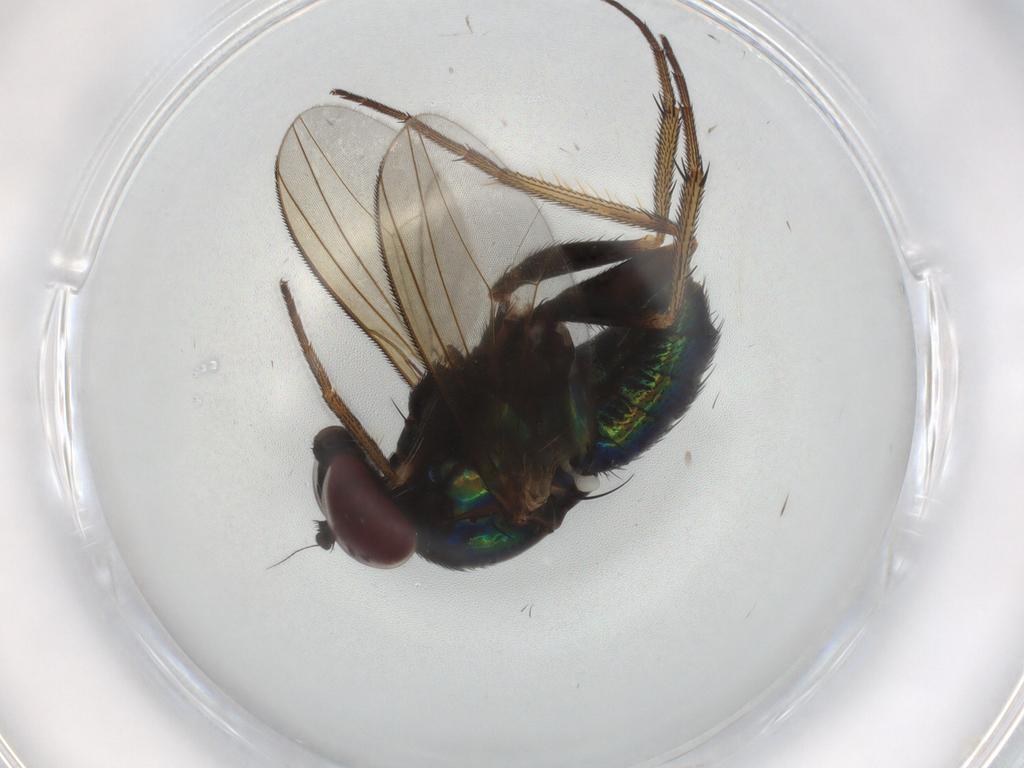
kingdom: Animalia
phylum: Arthropoda
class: Insecta
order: Diptera
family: Dolichopodidae
